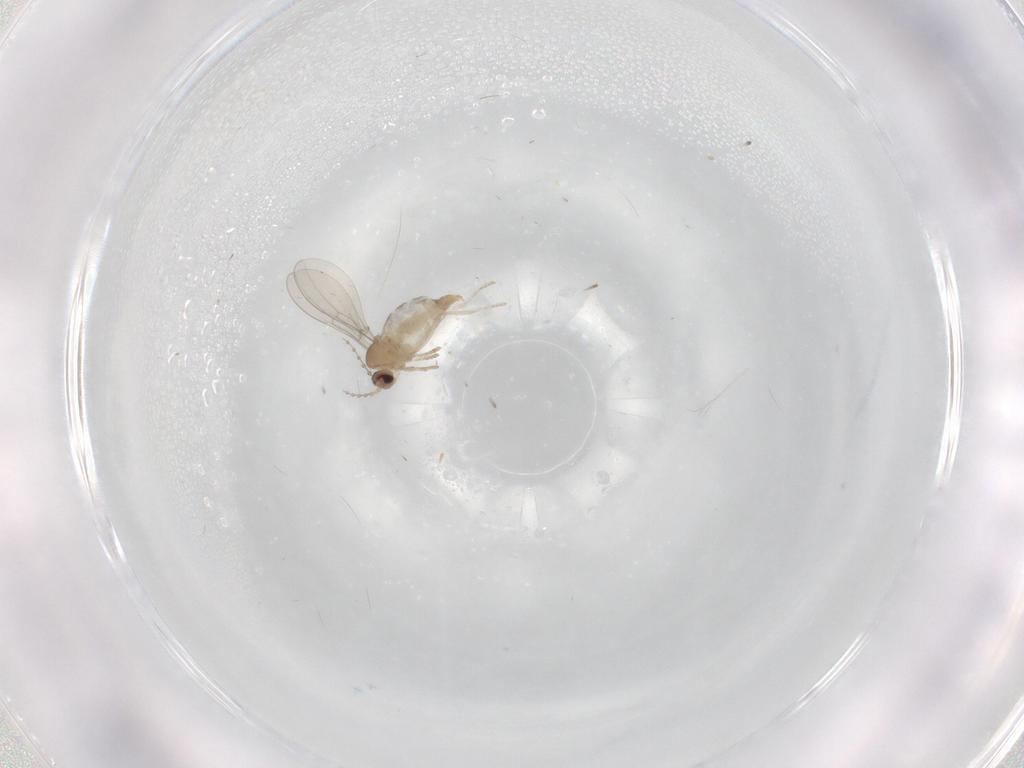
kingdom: Animalia
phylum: Arthropoda
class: Insecta
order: Diptera
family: Cecidomyiidae
